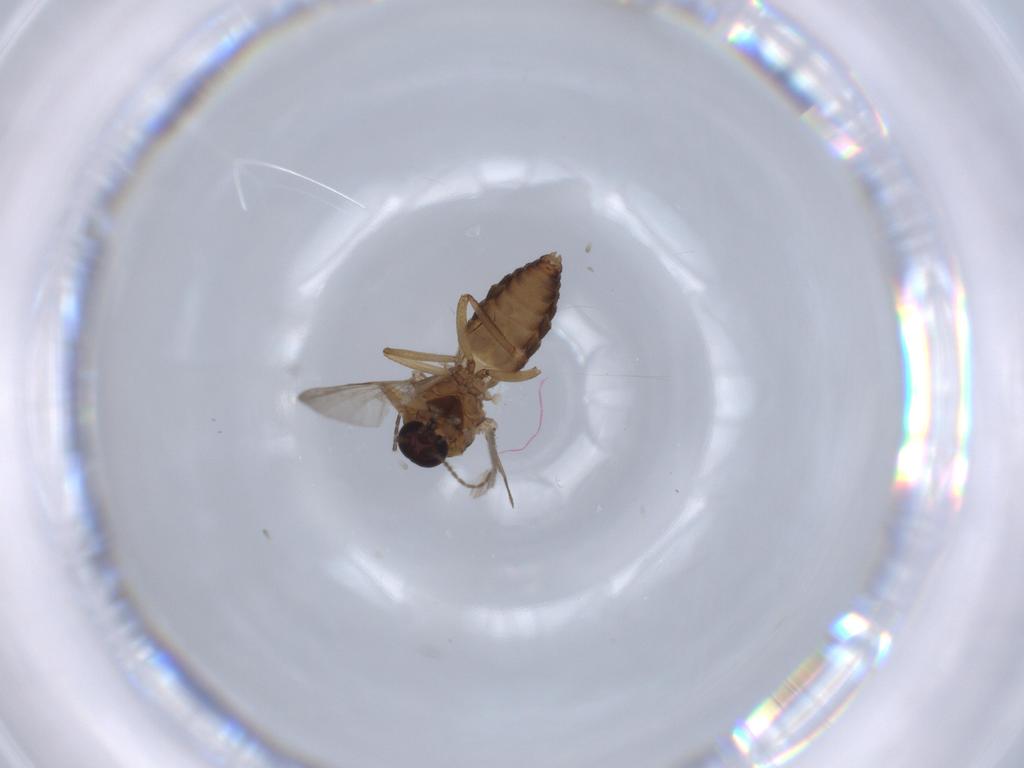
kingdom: Animalia
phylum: Arthropoda
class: Insecta
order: Diptera
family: Ceratopogonidae
